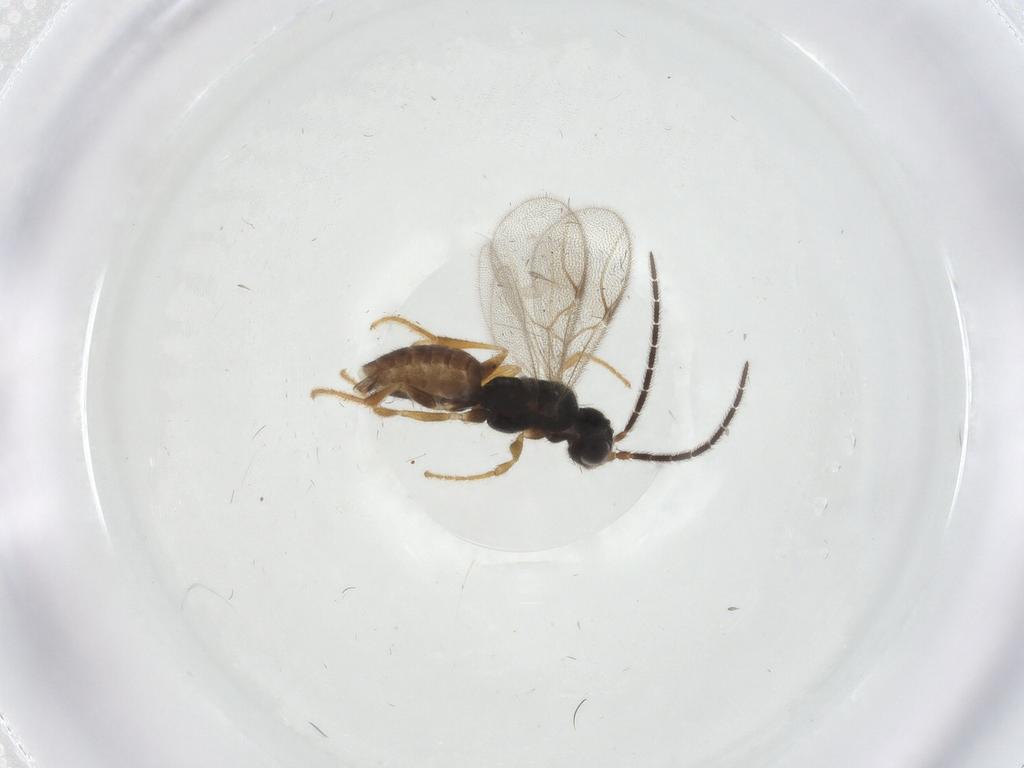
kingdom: Animalia
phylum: Arthropoda
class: Insecta
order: Hymenoptera
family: Dryinidae
